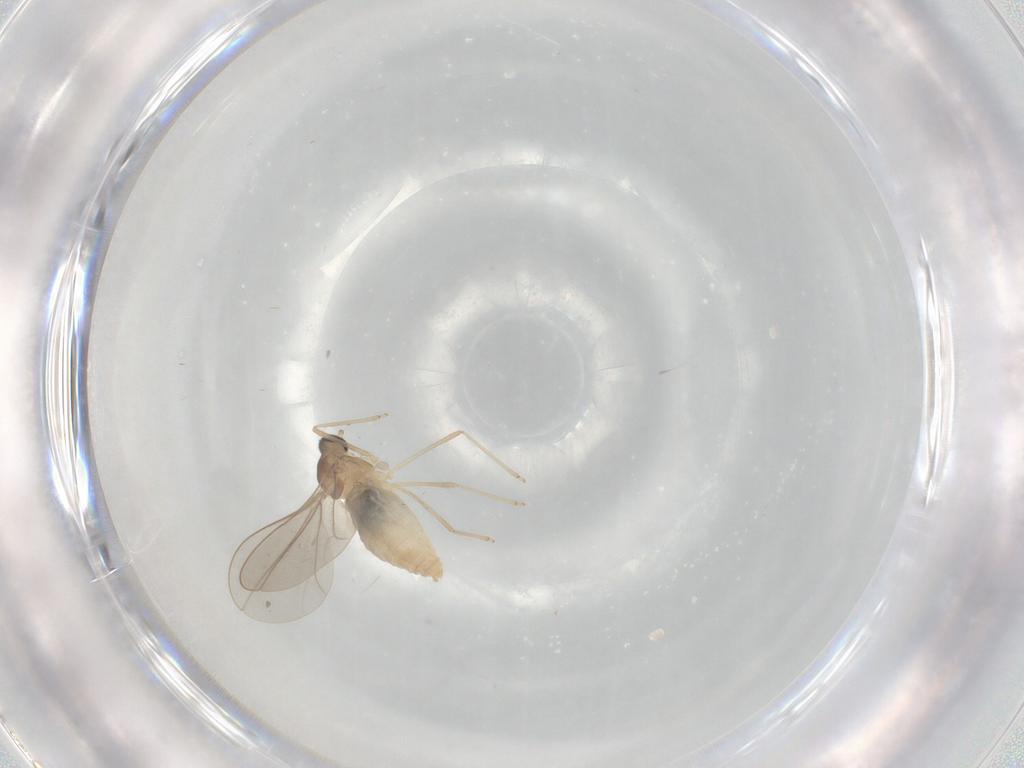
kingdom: Animalia
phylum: Arthropoda
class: Insecta
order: Diptera
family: Cecidomyiidae
